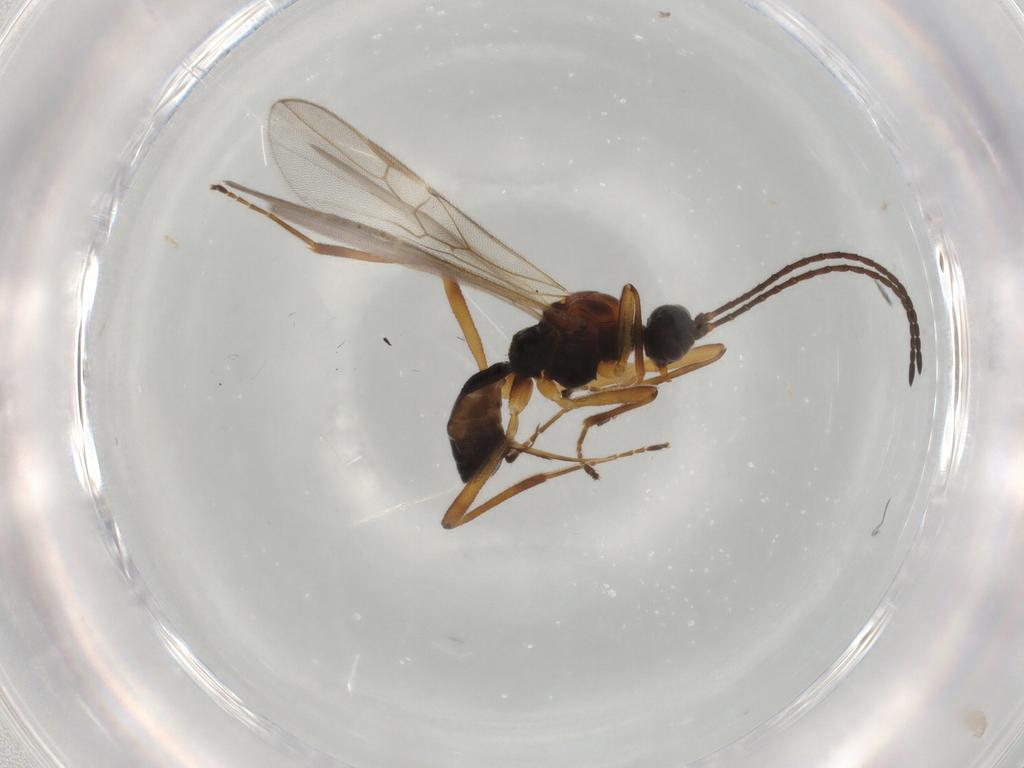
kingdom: Animalia
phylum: Arthropoda
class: Insecta
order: Hymenoptera
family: Braconidae
